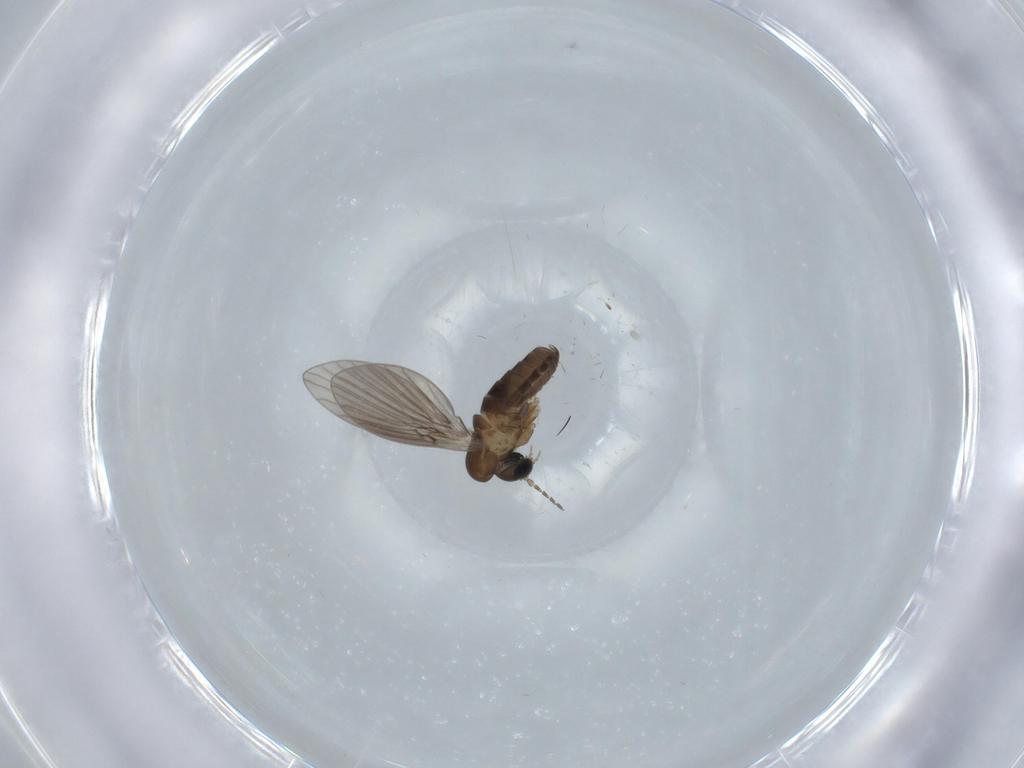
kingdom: Animalia
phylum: Arthropoda
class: Insecta
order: Diptera
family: Psychodidae
